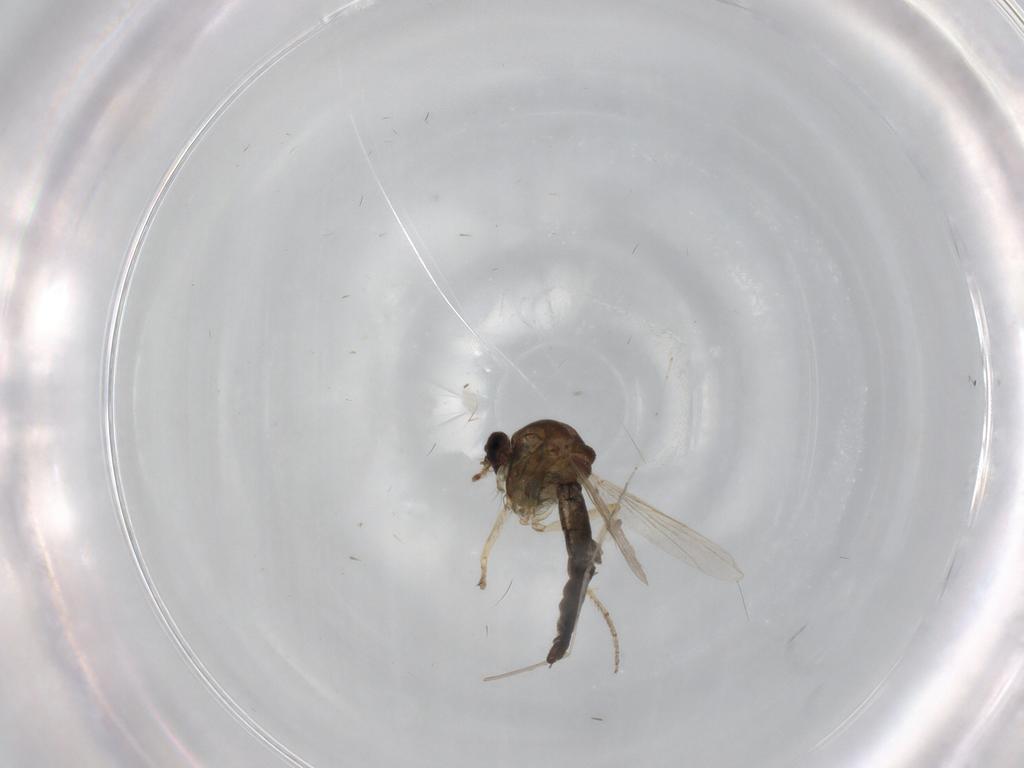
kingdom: Animalia
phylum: Arthropoda
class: Insecta
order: Diptera
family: Ceratopogonidae
